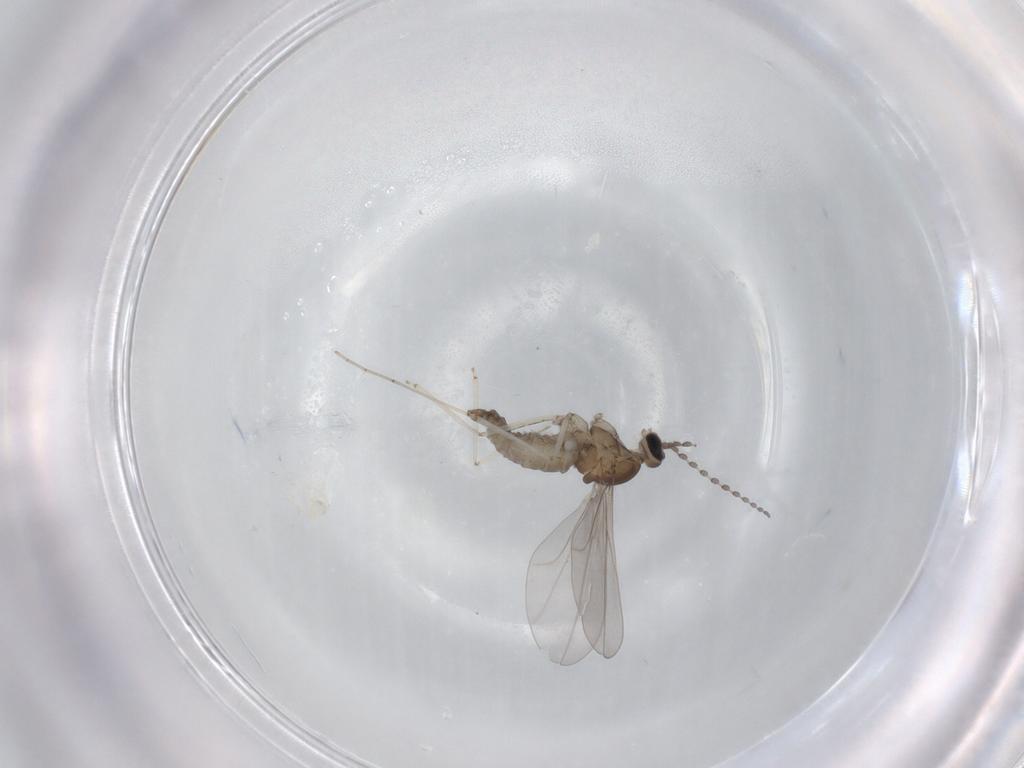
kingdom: Animalia
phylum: Arthropoda
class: Insecta
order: Diptera
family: Cecidomyiidae
